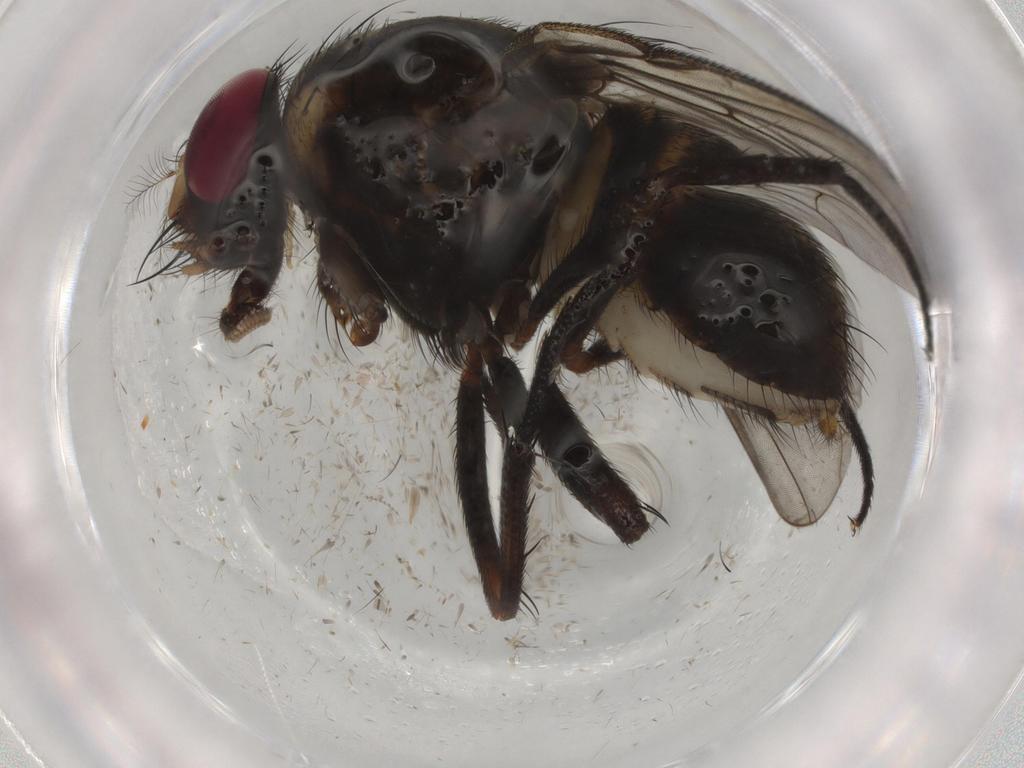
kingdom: Animalia
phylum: Arthropoda
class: Insecta
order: Diptera
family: Muscidae
